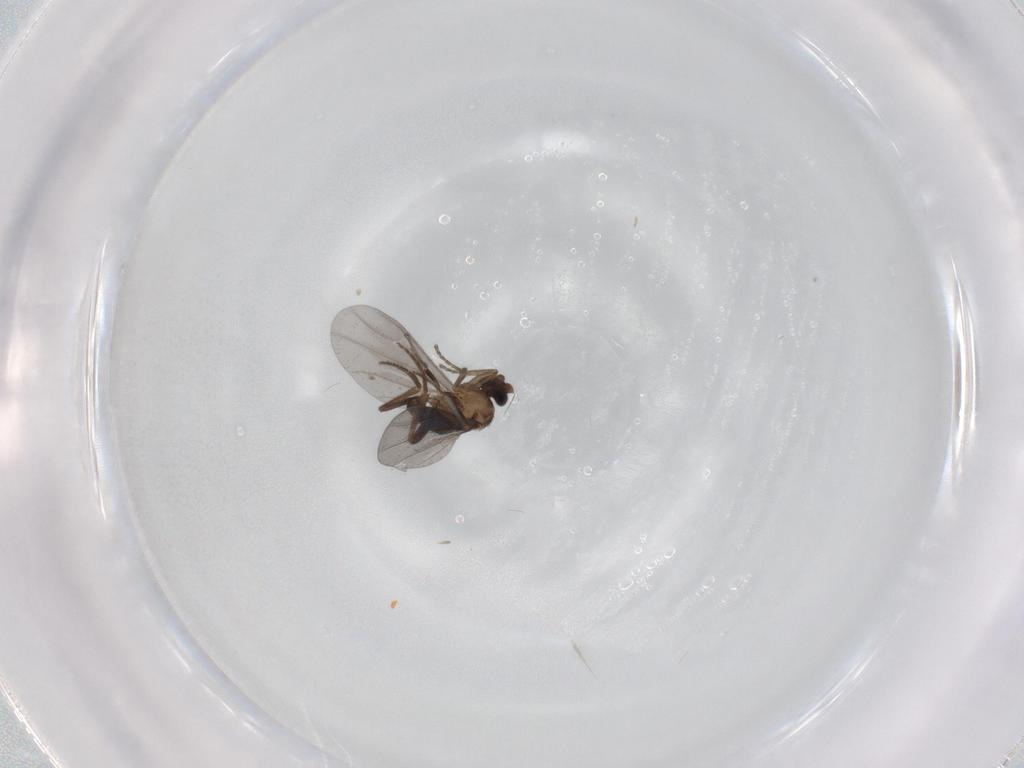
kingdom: Animalia
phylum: Arthropoda
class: Insecta
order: Diptera
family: Phoridae
